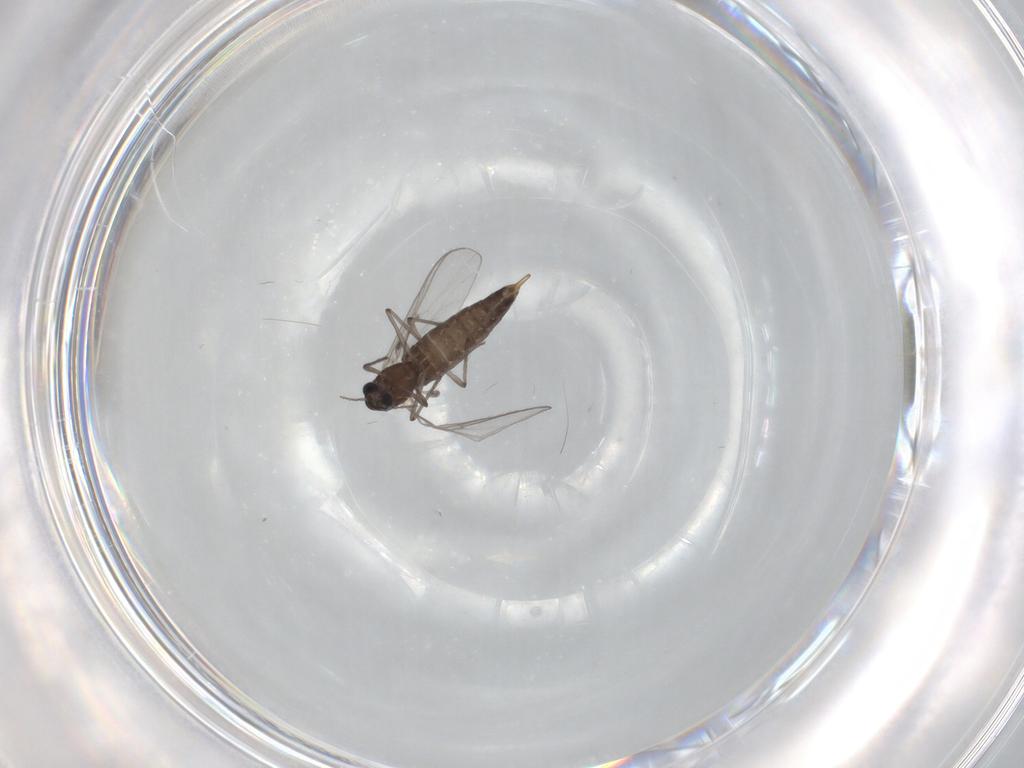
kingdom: Animalia
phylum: Arthropoda
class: Insecta
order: Diptera
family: Chironomidae
